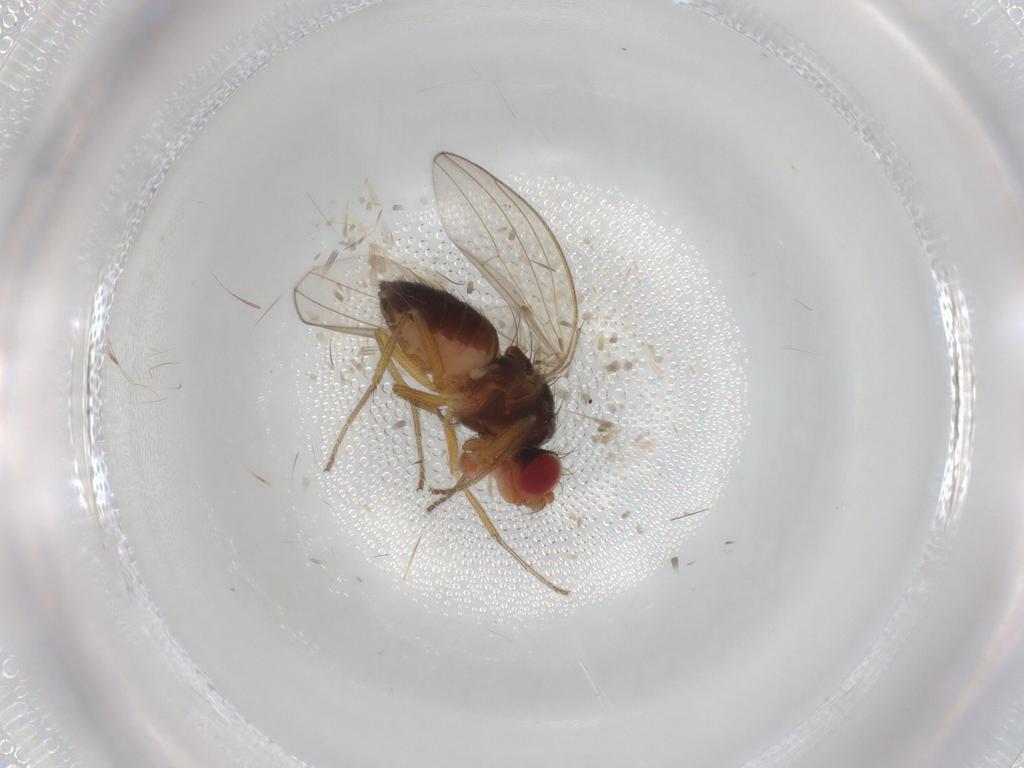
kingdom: Animalia
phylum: Arthropoda
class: Insecta
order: Diptera
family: Drosophilidae
